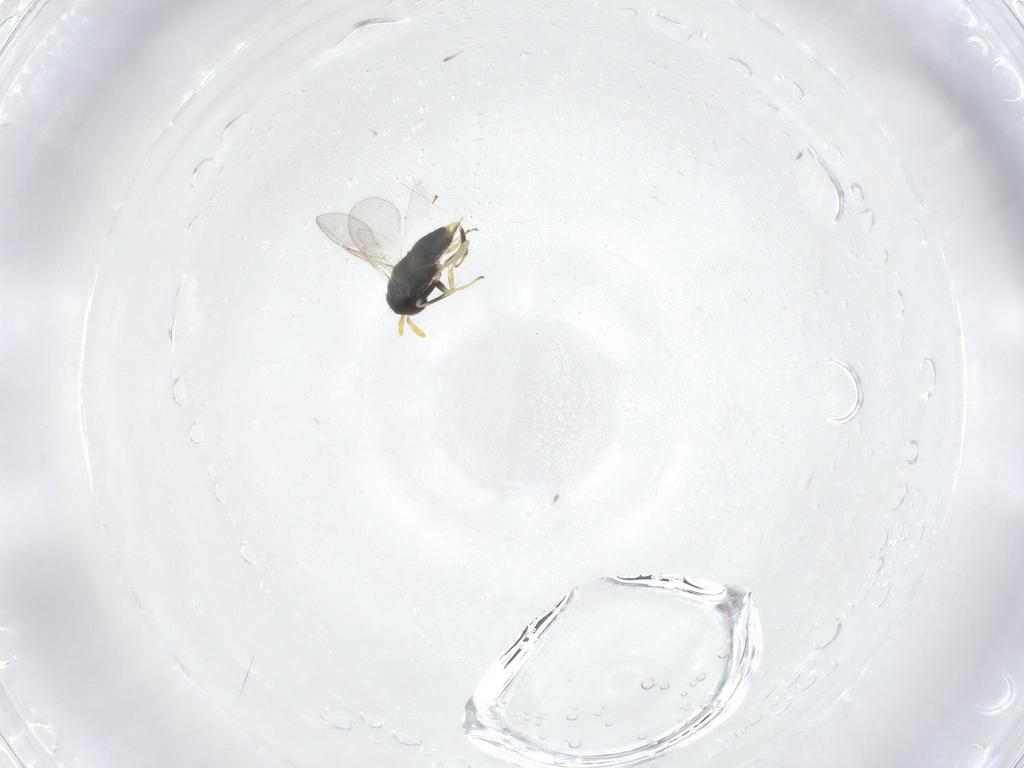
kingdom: Animalia
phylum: Arthropoda
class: Insecta
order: Hymenoptera
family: Aphelinidae
